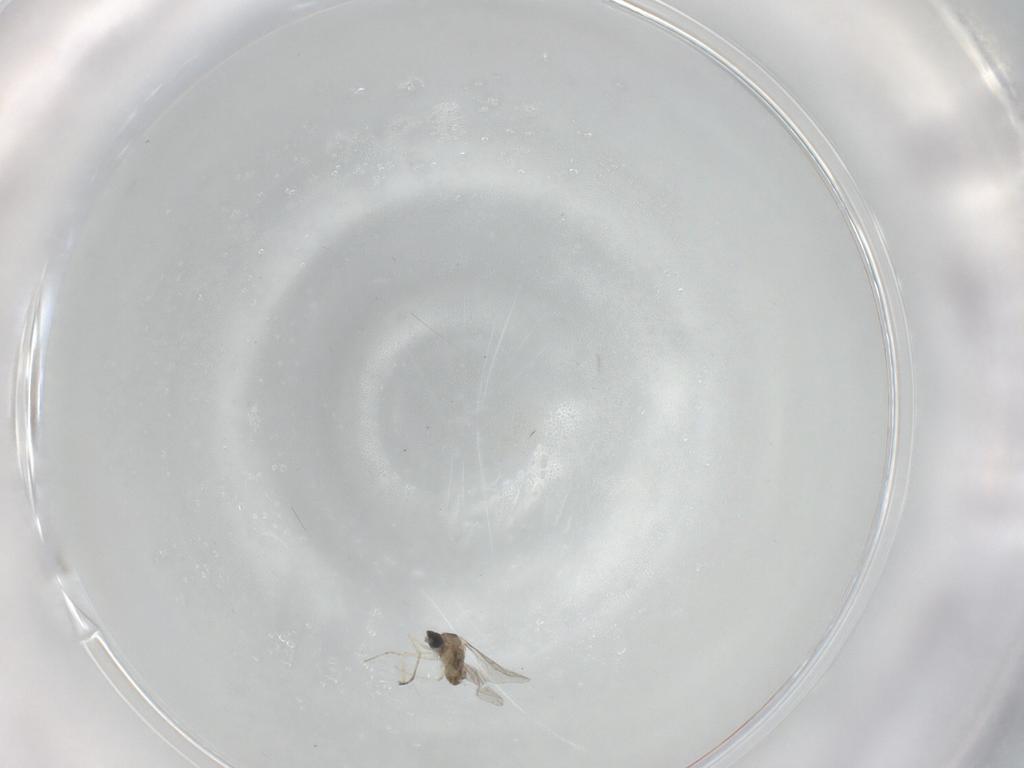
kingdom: Animalia
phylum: Arthropoda
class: Insecta
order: Diptera
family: Cecidomyiidae
